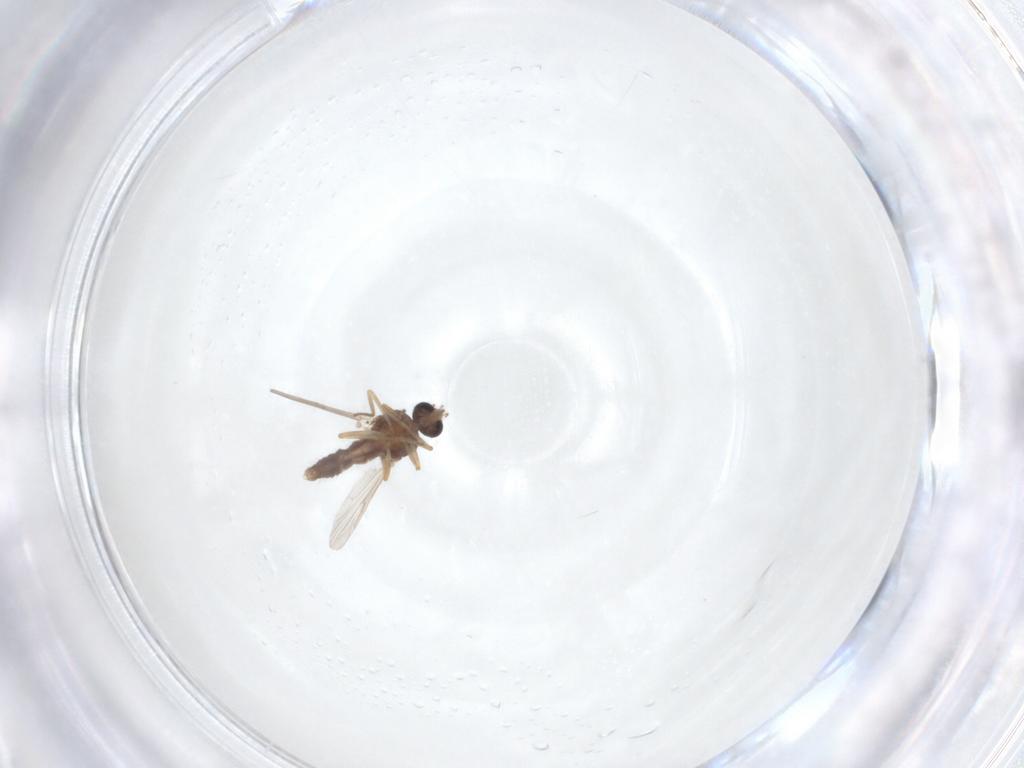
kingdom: Animalia
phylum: Arthropoda
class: Insecta
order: Diptera
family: Ceratopogonidae
